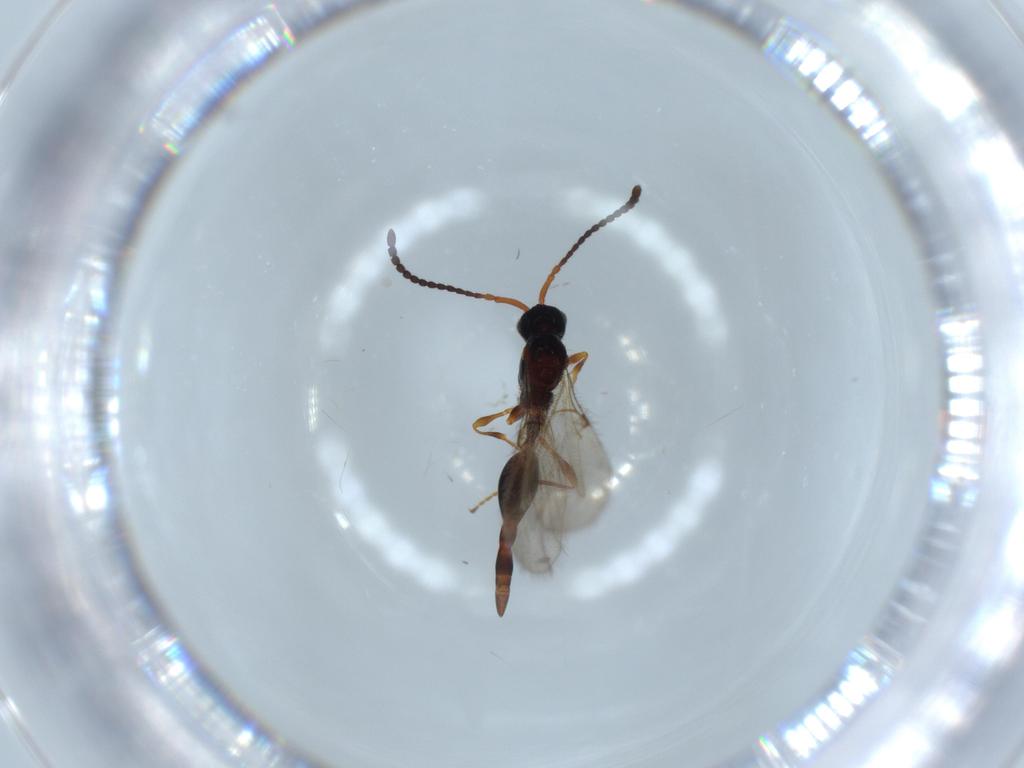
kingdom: Animalia
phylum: Arthropoda
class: Insecta
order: Hymenoptera
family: Diapriidae
